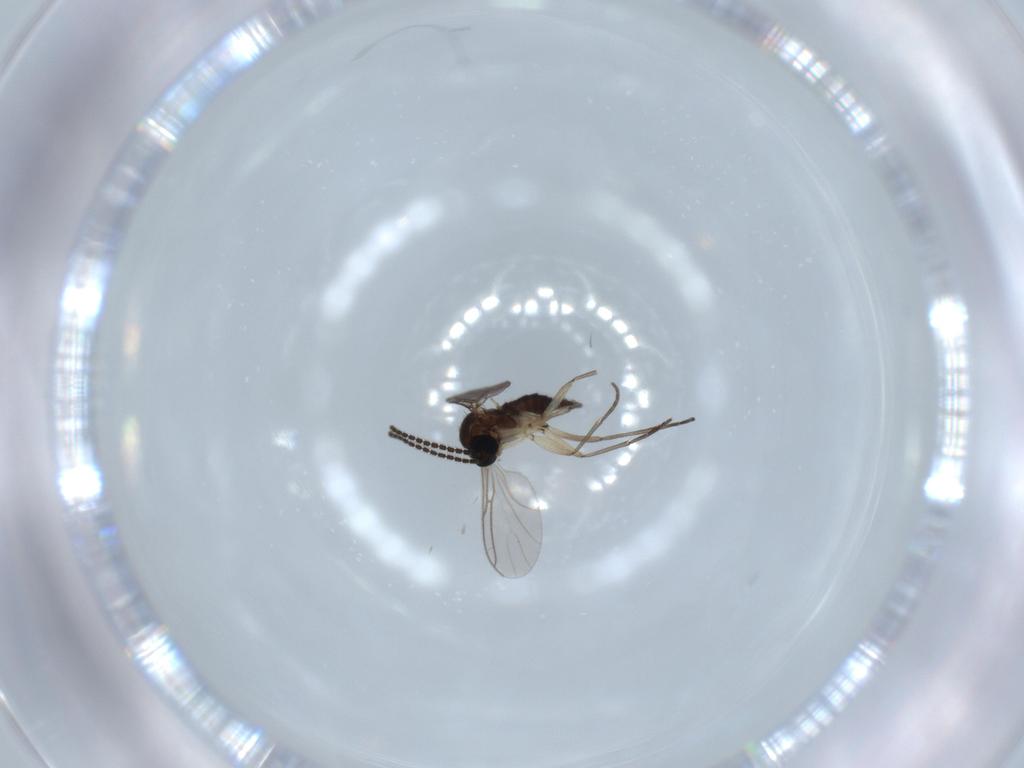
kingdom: Animalia
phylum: Arthropoda
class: Insecta
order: Diptera
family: Sciaridae
